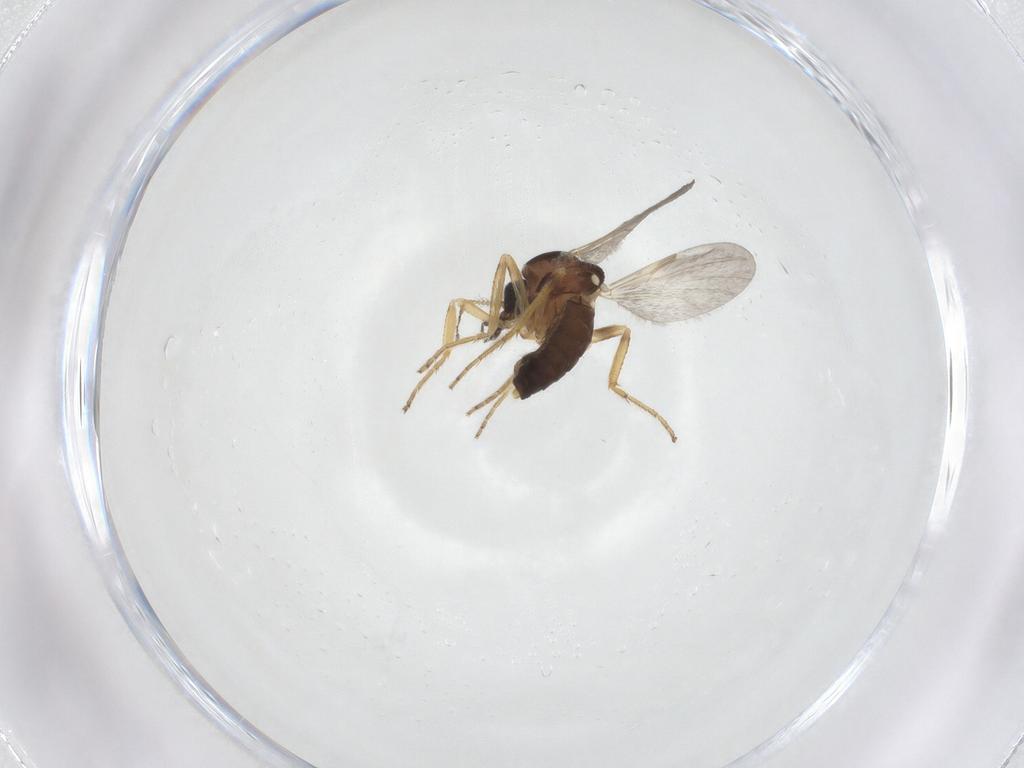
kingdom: Animalia
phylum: Arthropoda
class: Insecta
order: Diptera
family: Ceratopogonidae
